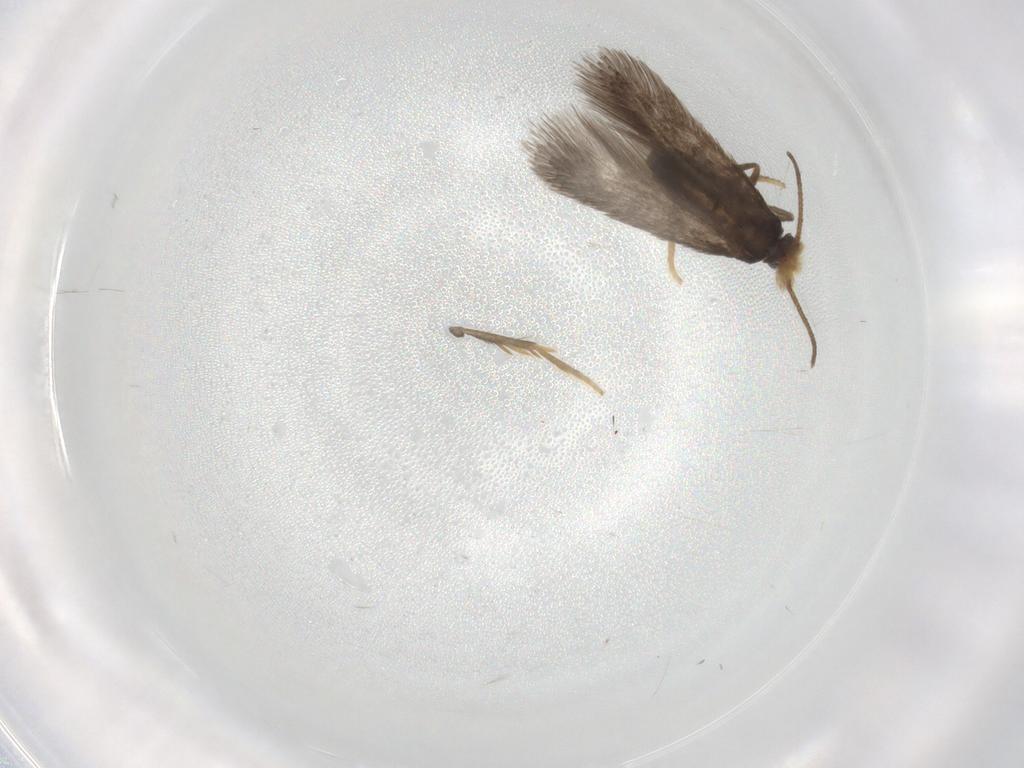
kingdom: Animalia
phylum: Arthropoda
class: Insecta
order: Lepidoptera
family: Nepticulidae
